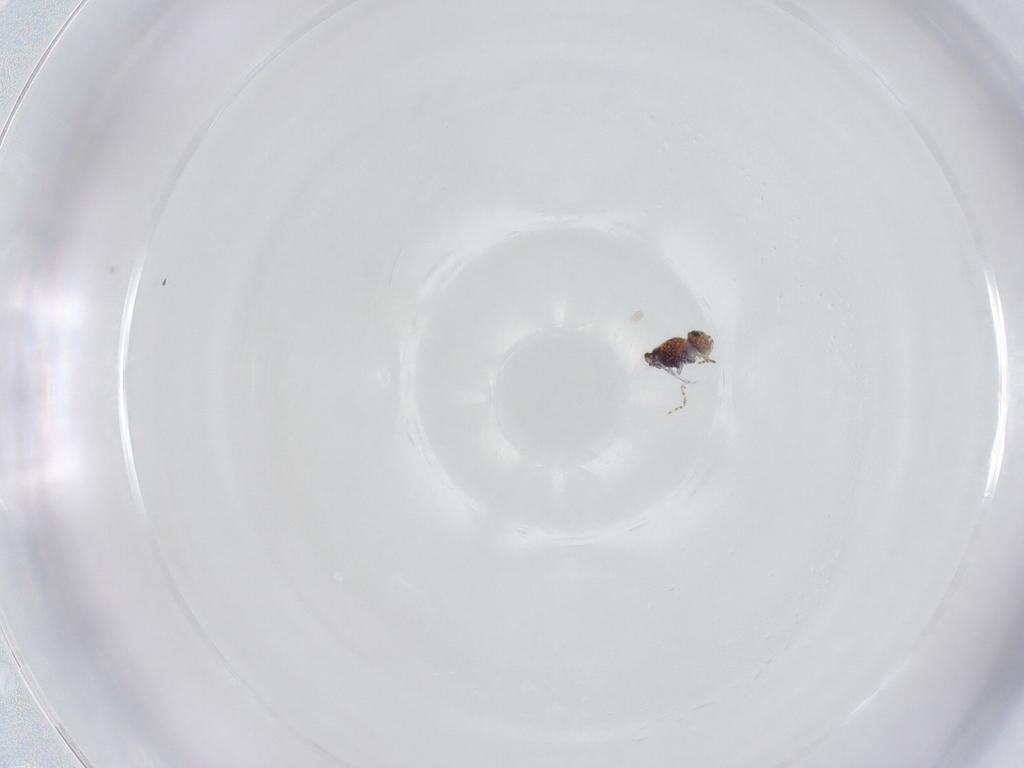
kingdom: Animalia
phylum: Arthropoda
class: Collembola
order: Symphypleona
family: Bourletiellidae
